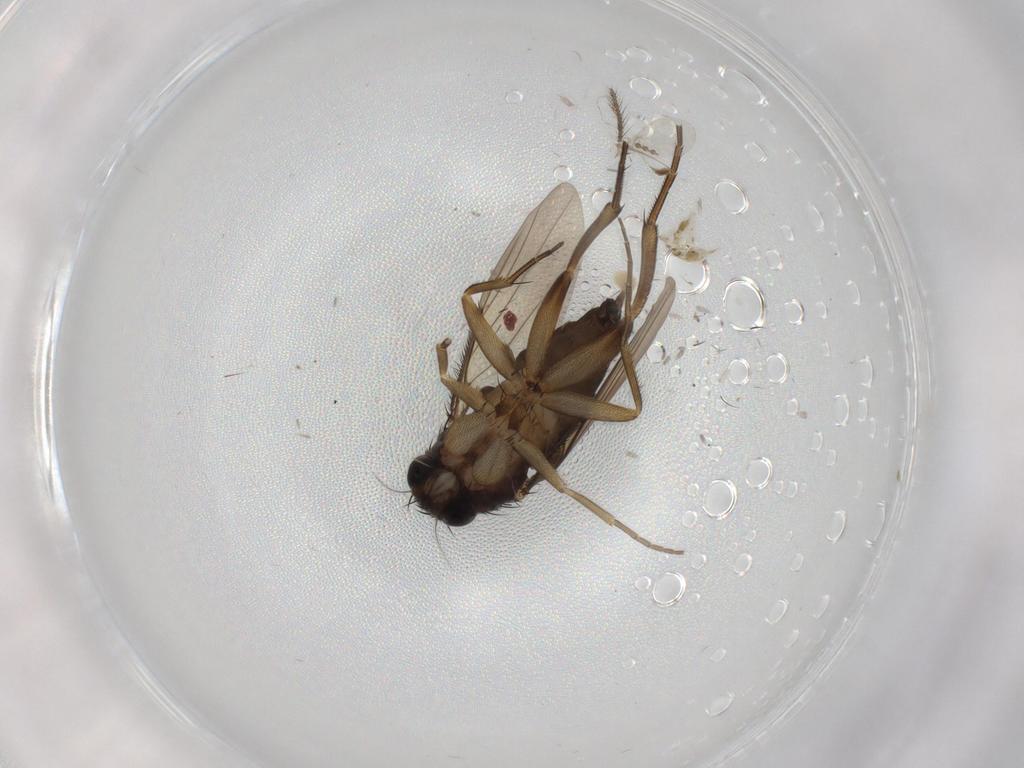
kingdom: Animalia
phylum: Arthropoda
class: Insecta
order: Diptera
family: Phoridae
